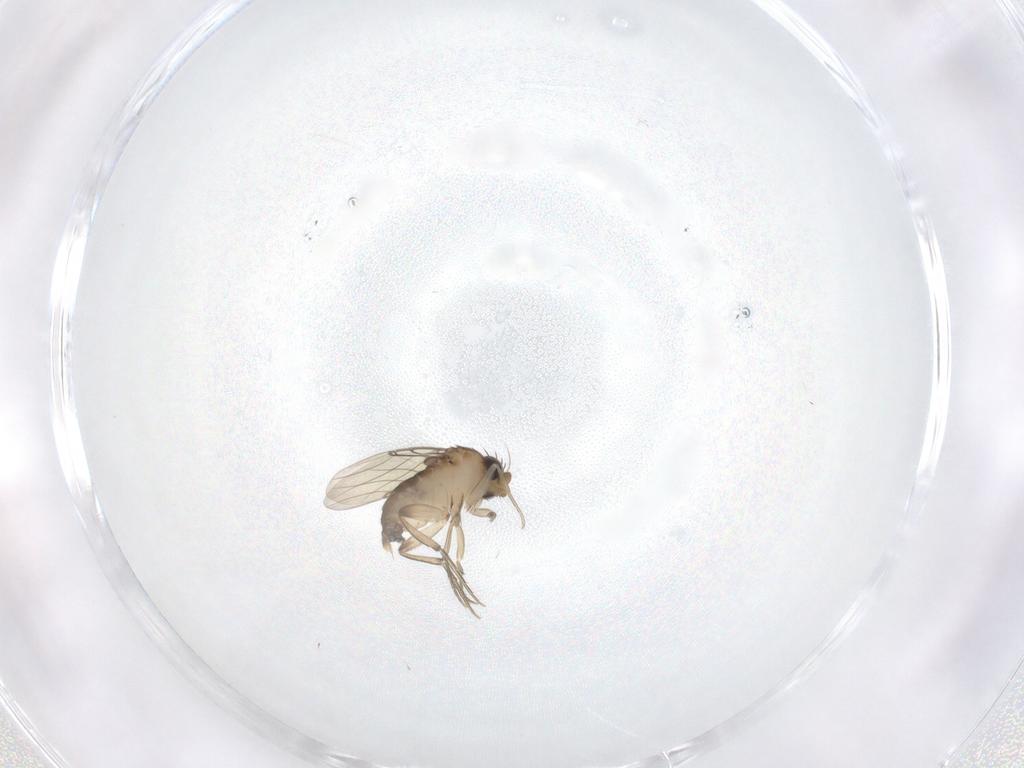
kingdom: Animalia
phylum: Arthropoda
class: Insecta
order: Diptera
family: Phoridae
